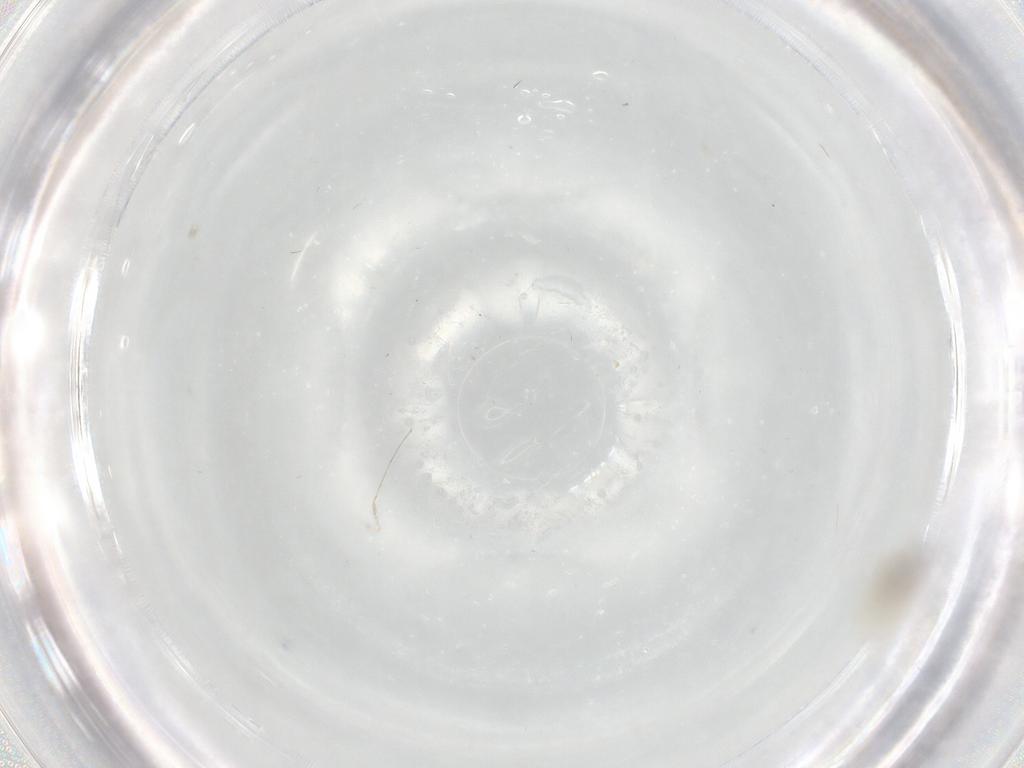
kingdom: Animalia
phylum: Arthropoda
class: Insecta
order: Diptera
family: Cecidomyiidae
